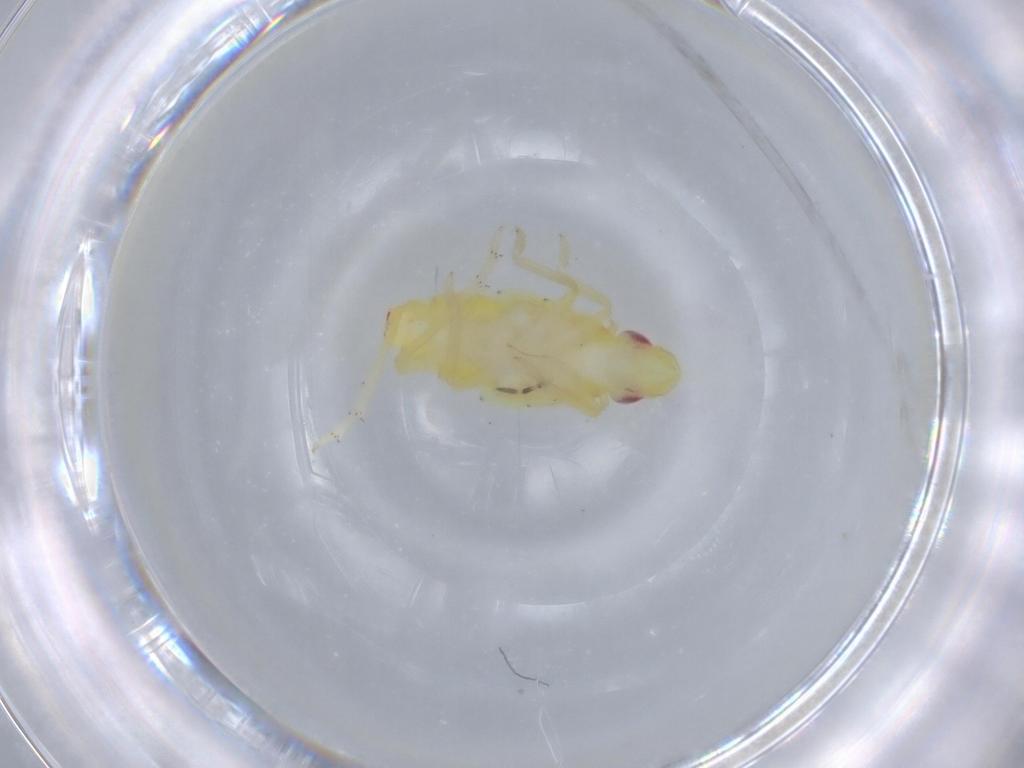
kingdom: Animalia
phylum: Arthropoda
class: Insecta
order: Hemiptera
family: Tropiduchidae
